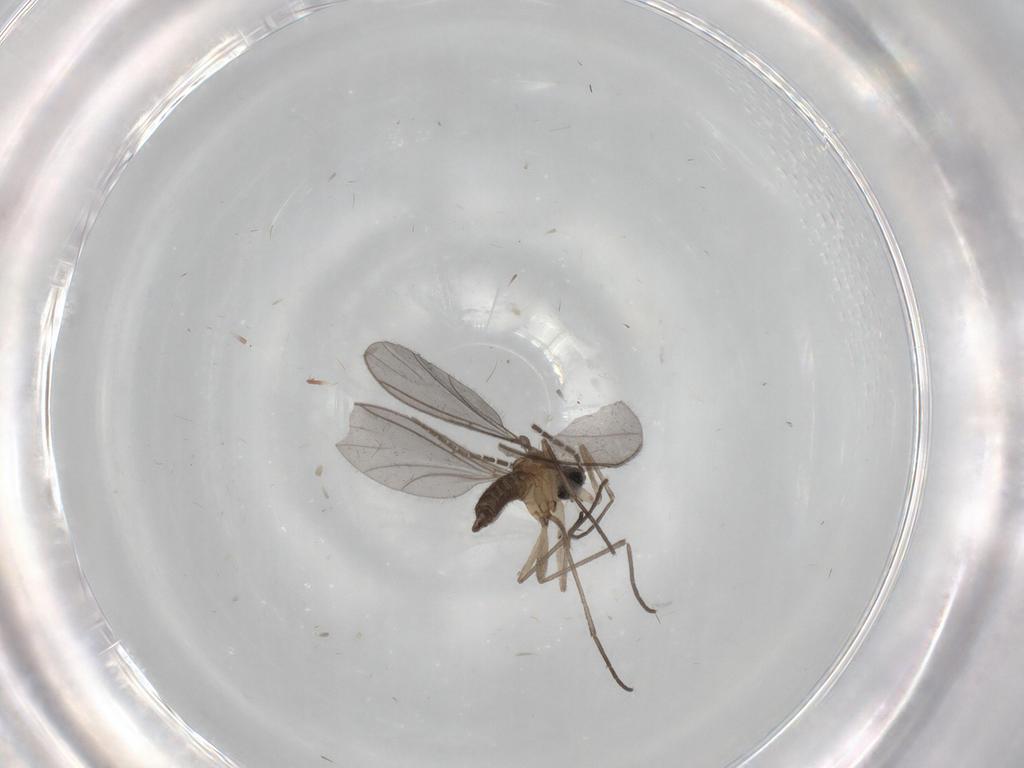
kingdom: Animalia
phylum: Arthropoda
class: Insecta
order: Diptera
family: Sciaridae
